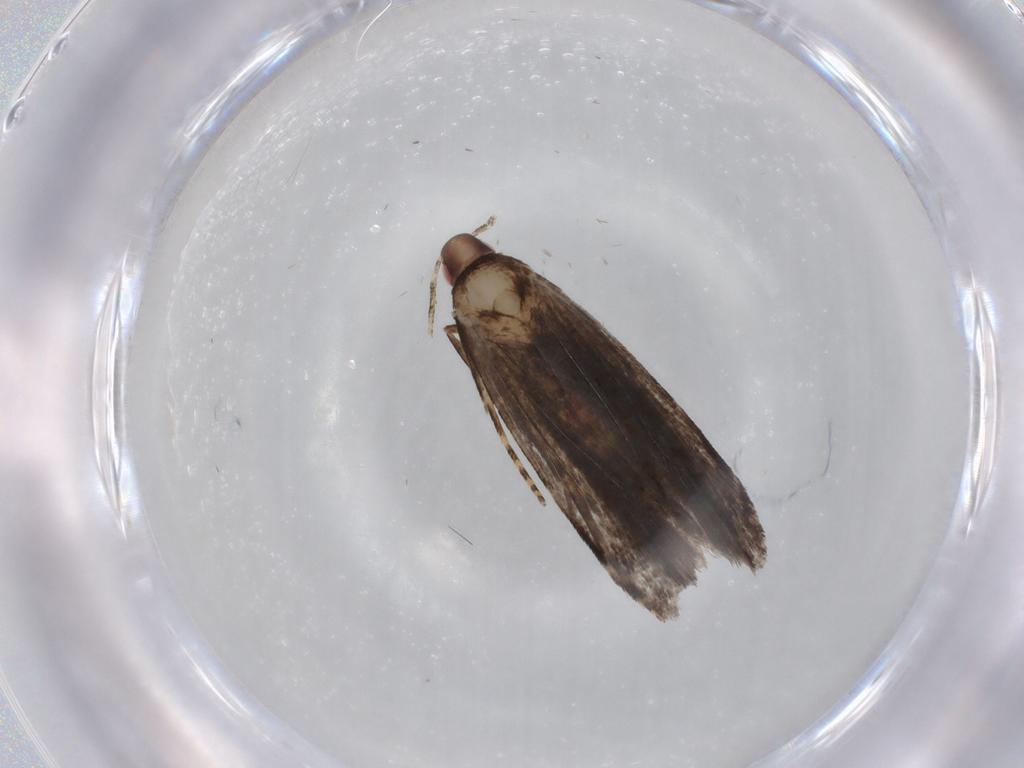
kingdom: Animalia
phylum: Arthropoda
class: Insecta
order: Lepidoptera
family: Gelechiidae
